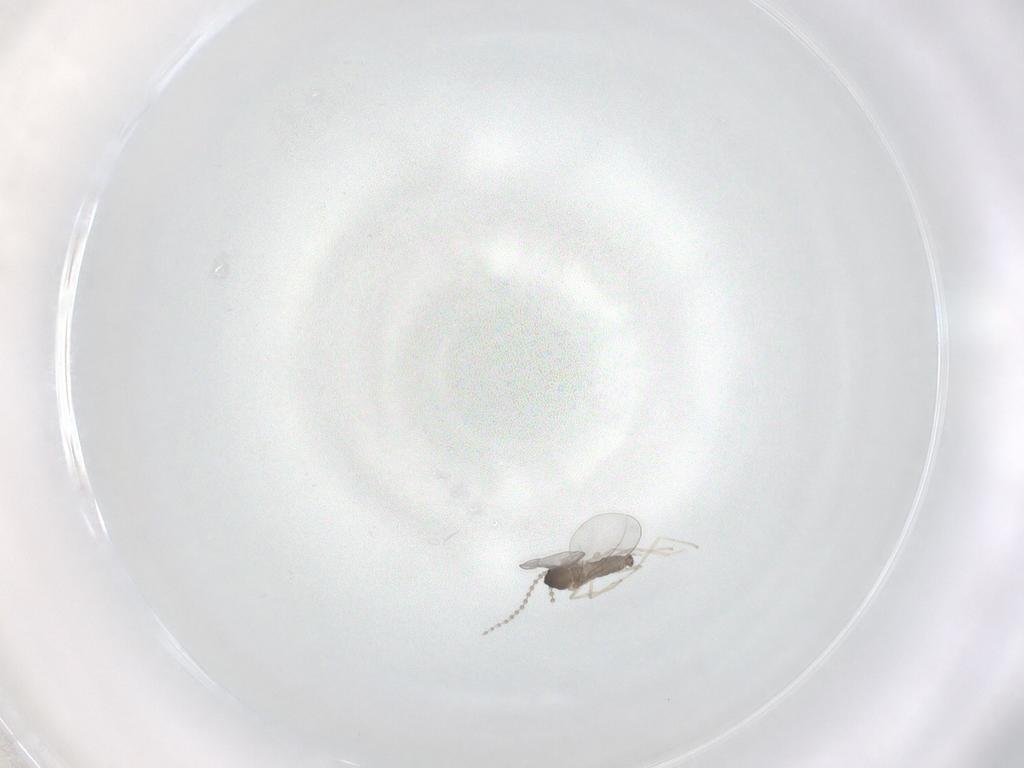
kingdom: Animalia
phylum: Arthropoda
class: Insecta
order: Diptera
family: Cecidomyiidae
